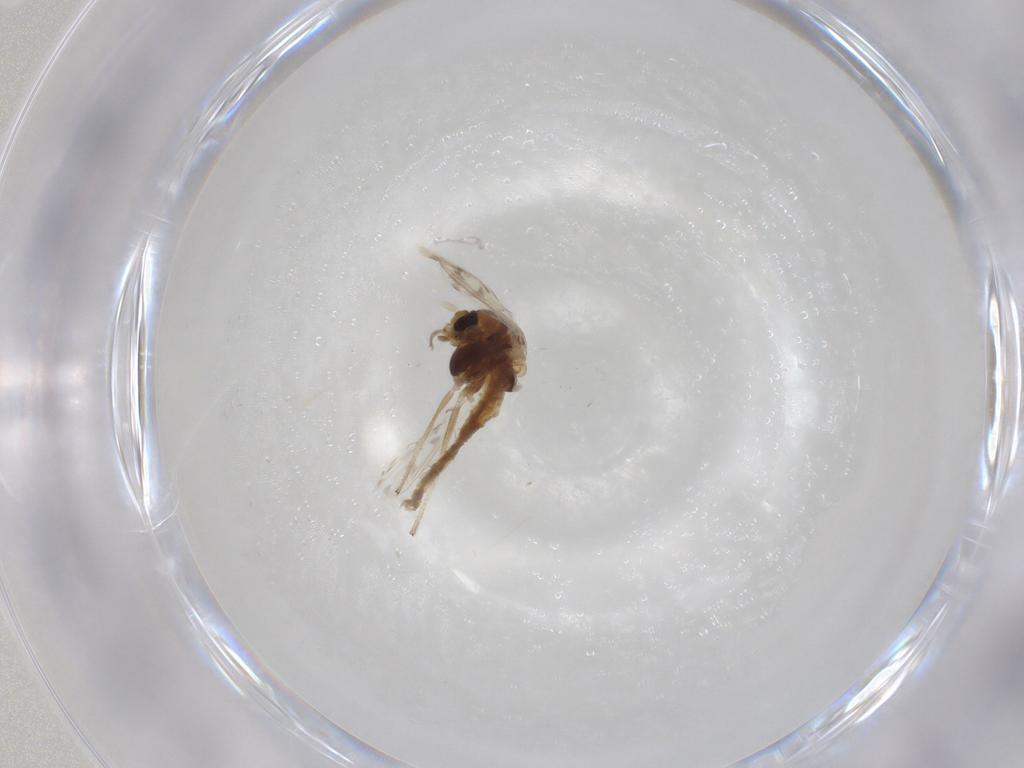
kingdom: Animalia
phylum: Arthropoda
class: Insecta
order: Diptera
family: Chironomidae
